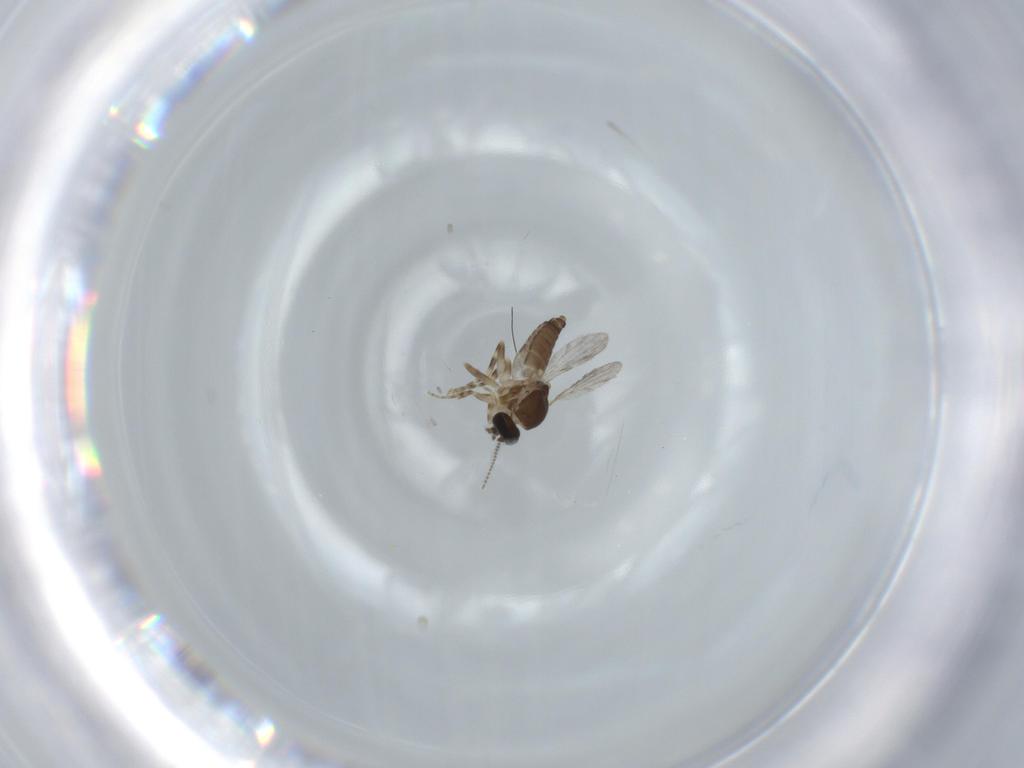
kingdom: Animalia
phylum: Arthropoda
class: Insecta
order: Diptera
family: Ceratopogonidae
